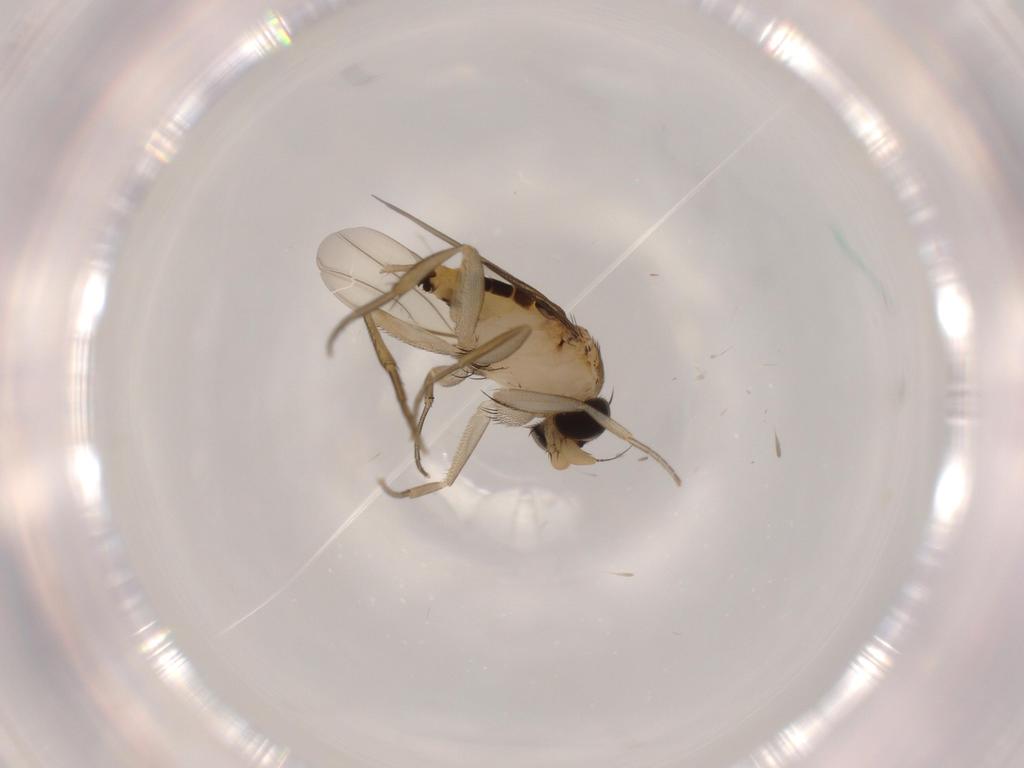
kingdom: Animalia
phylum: Arthropoda
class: Insecta
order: Diptera
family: Phoridae
